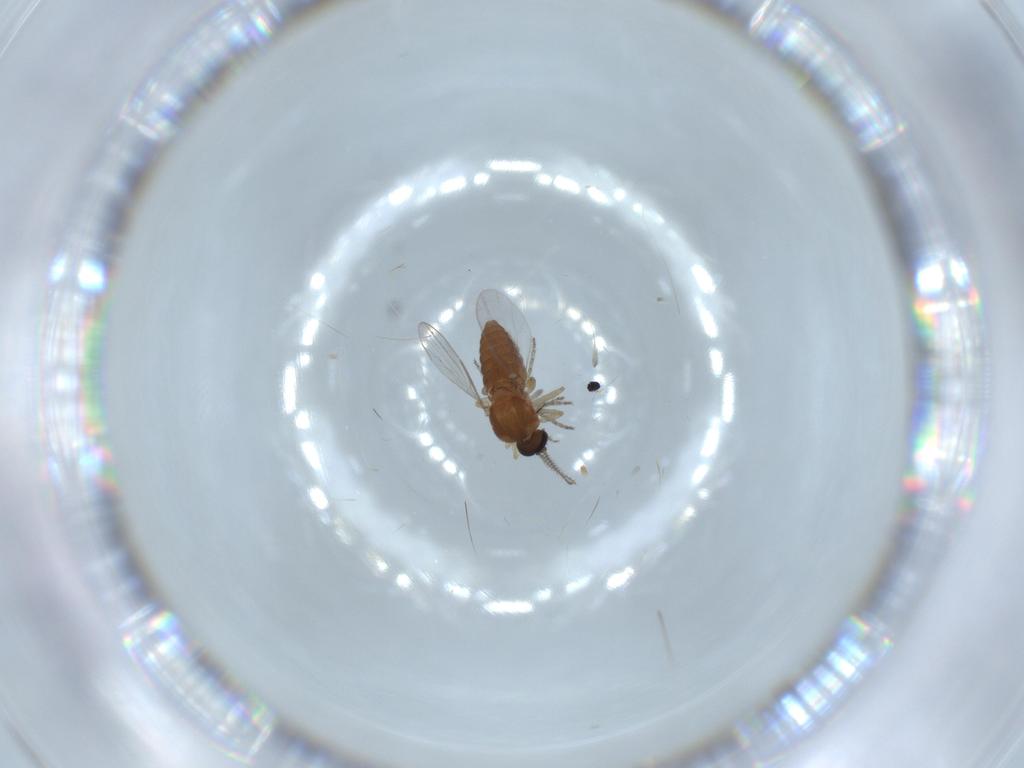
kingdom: Animalia
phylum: Arthropoda
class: Insecta
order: Diptera
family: Ceratopogonidae
